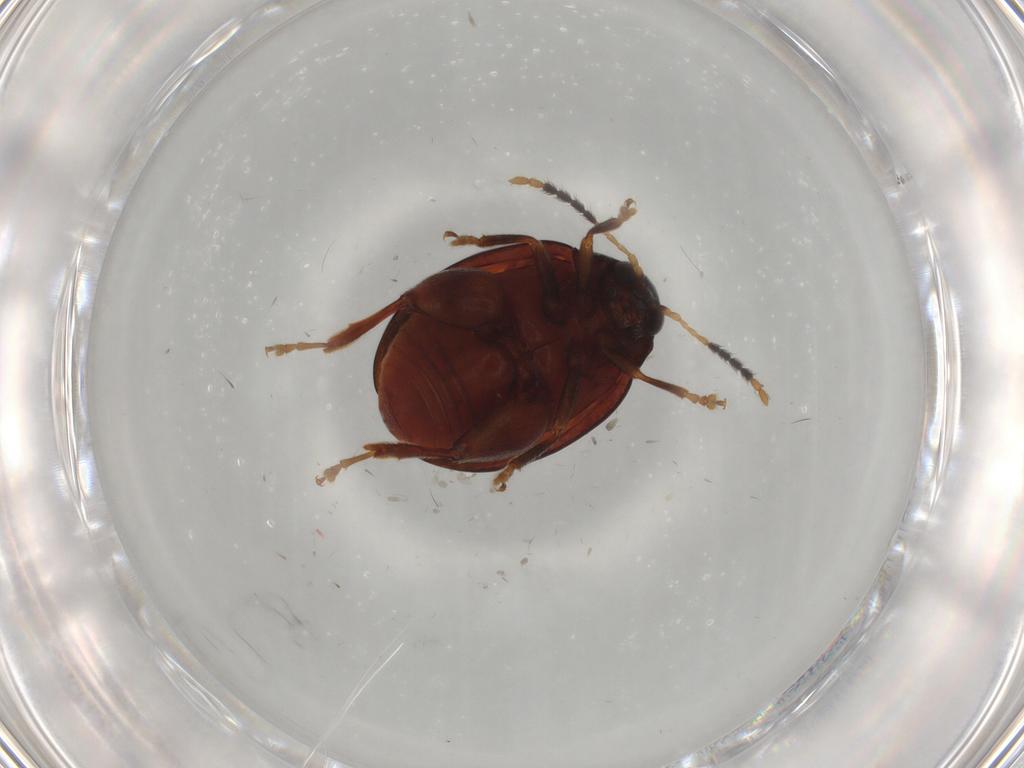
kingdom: Animalia
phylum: Arthropoda
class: Insecta
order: Coleoptera
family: Chrysomelidae
